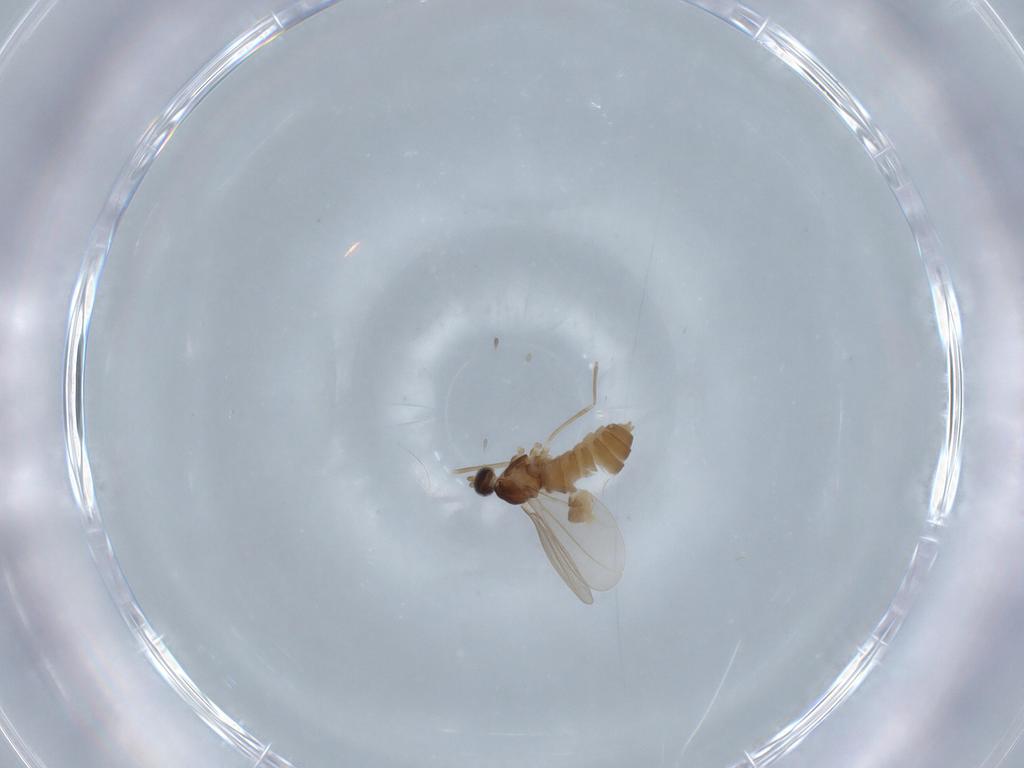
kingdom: Animalia
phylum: Arthropoda
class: Insecta
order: Diptera
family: Cecidomyiidae
